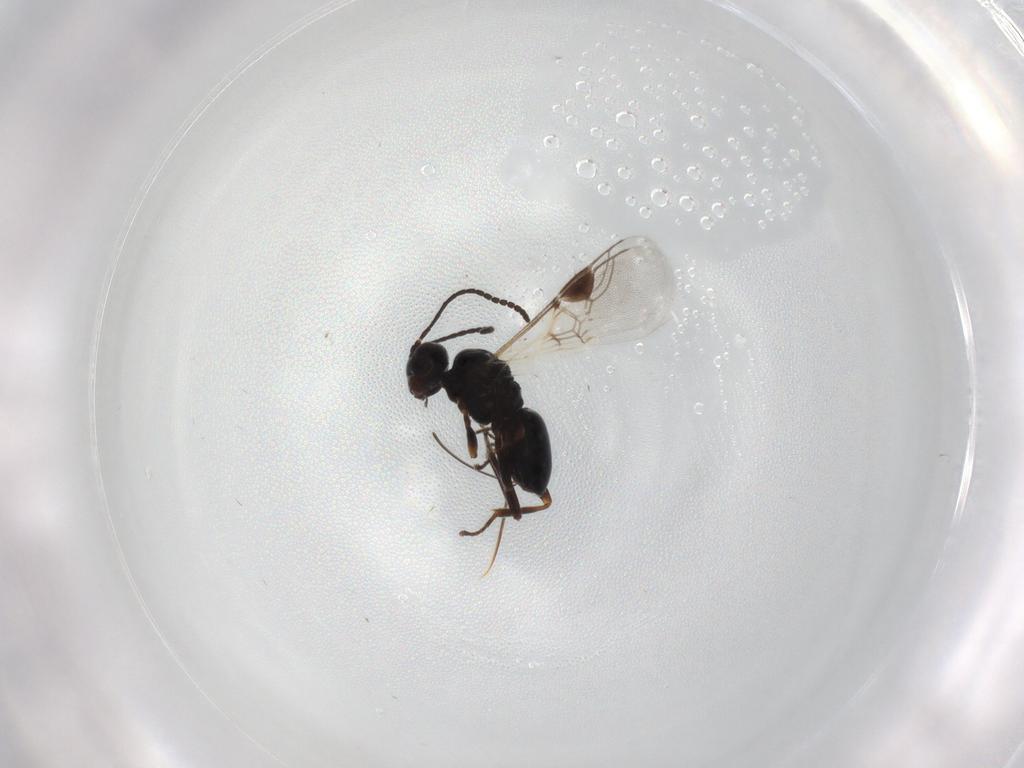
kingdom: Animalia
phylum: Arthropoda
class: Insecta
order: Hymenoptera
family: Braconidae
